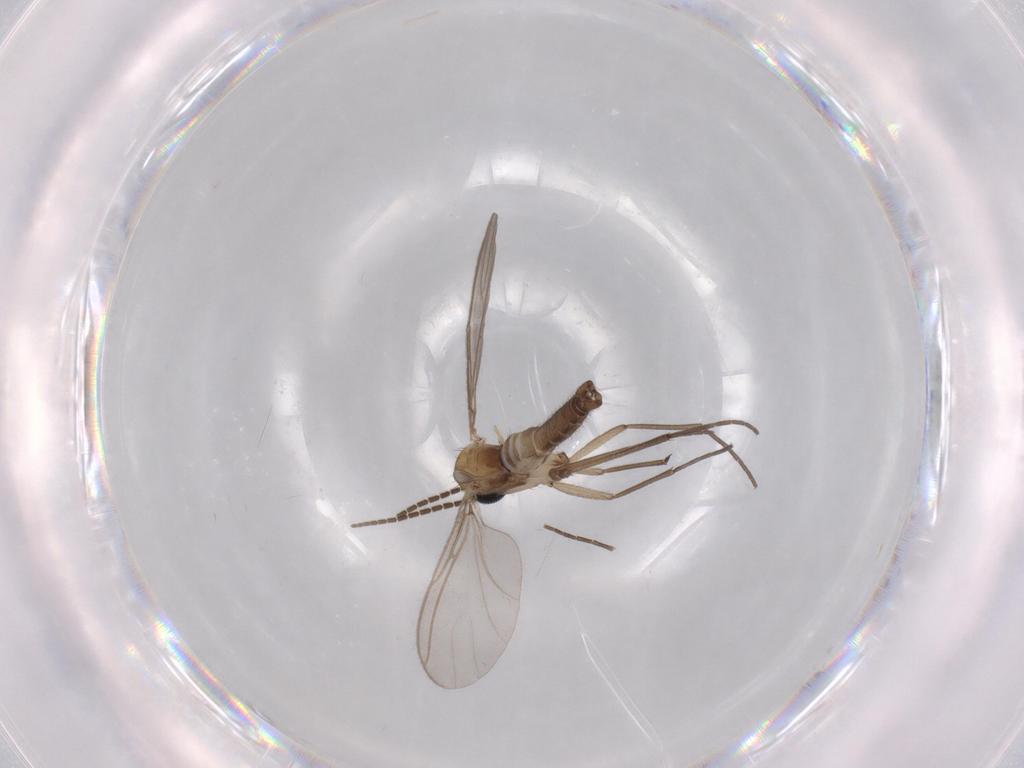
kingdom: Animalia
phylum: Arthropoda
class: Insecta
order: Diptera
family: Sciaridae
